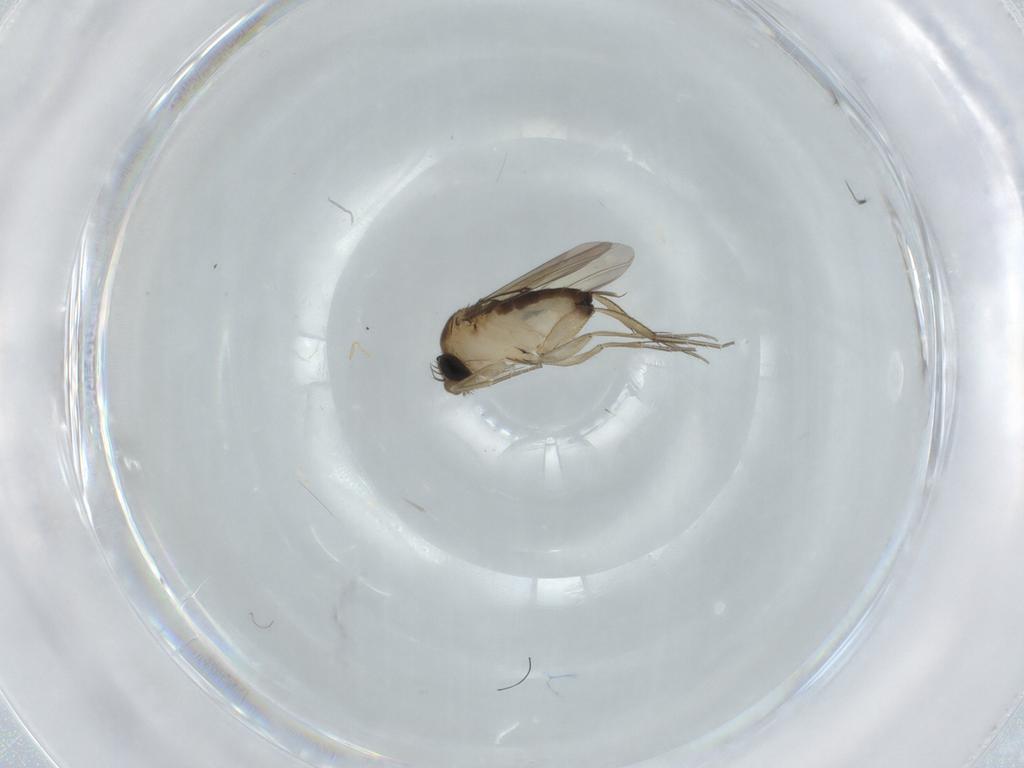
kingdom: Animalia
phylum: Arthropoda
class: Insecta
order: Diptera
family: Phoridae
